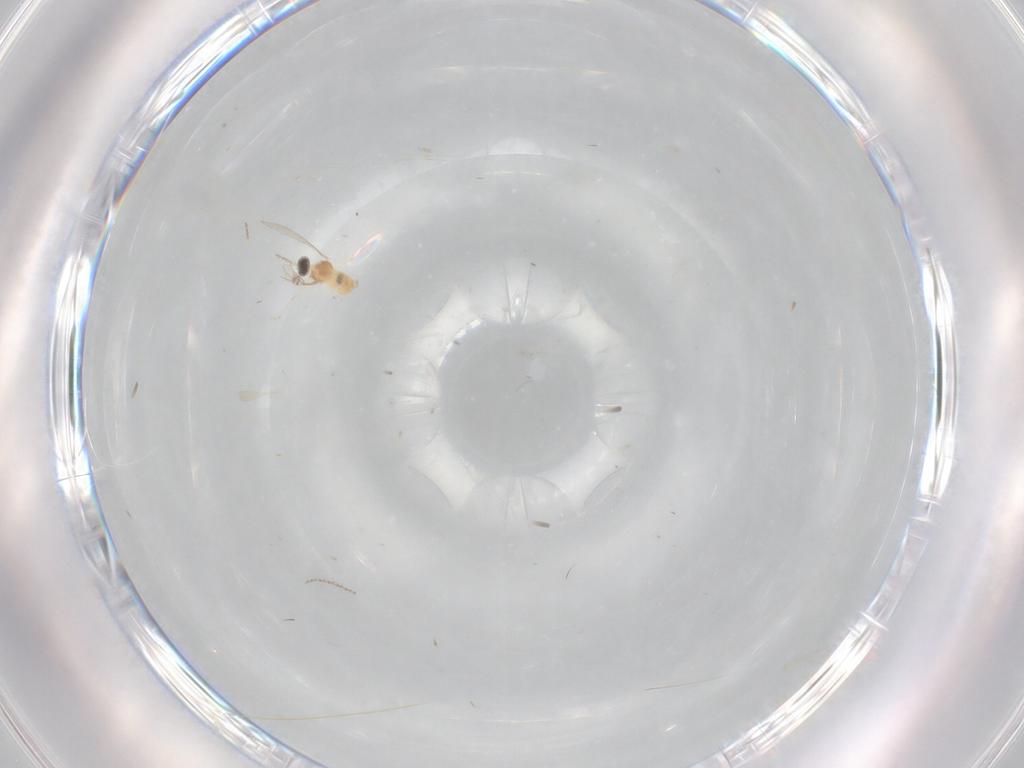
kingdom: Animalia
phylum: Arthropoda
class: Insecta
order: Diptera
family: Cecidomyiidae
